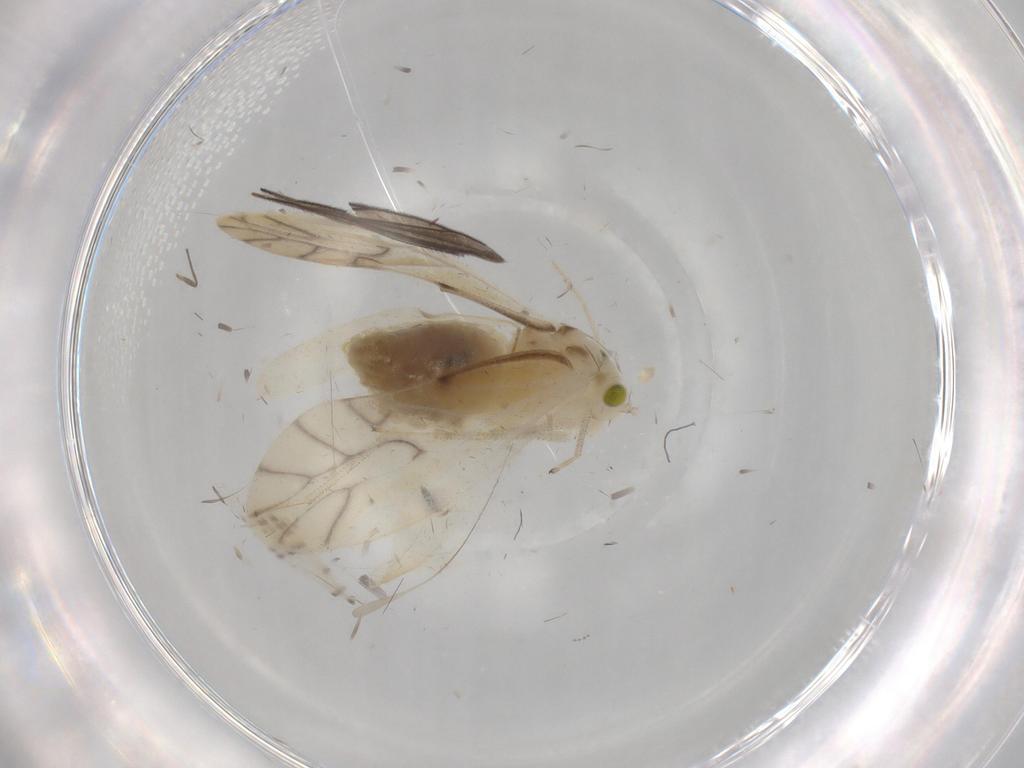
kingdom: Animalia
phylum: Arthropoda
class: Insecta
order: Psocodea
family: Caeciliusidae
